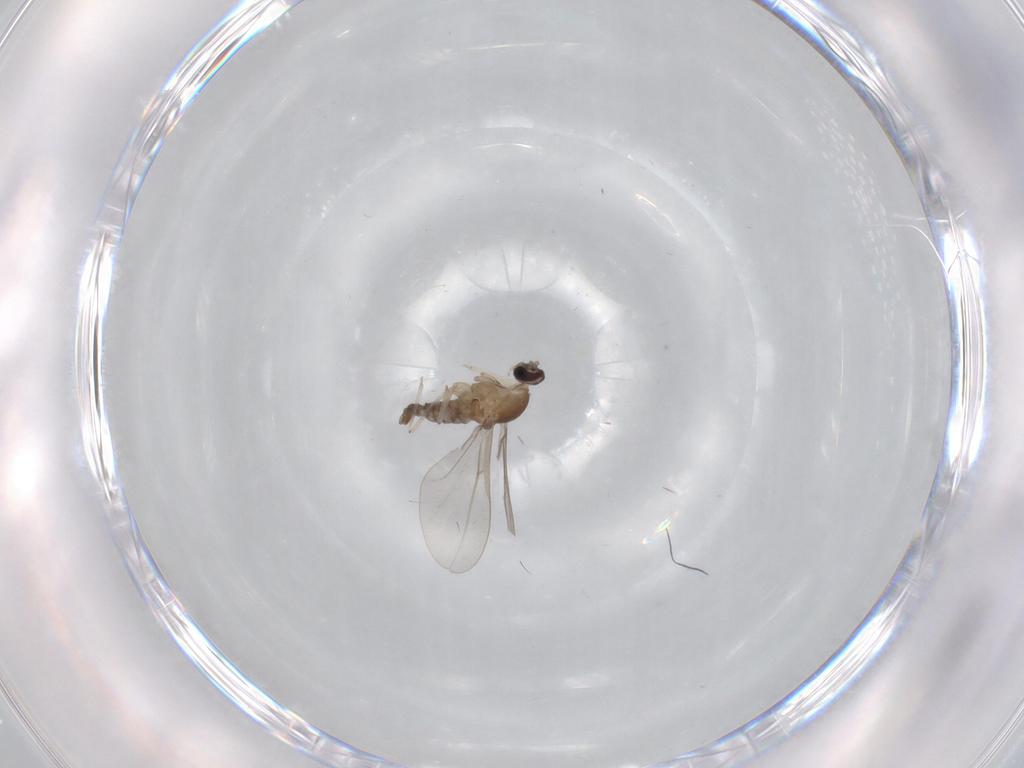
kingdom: Animalia
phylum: Arthropoda
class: Insecta
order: Diptera
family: Cecidomyiidae
